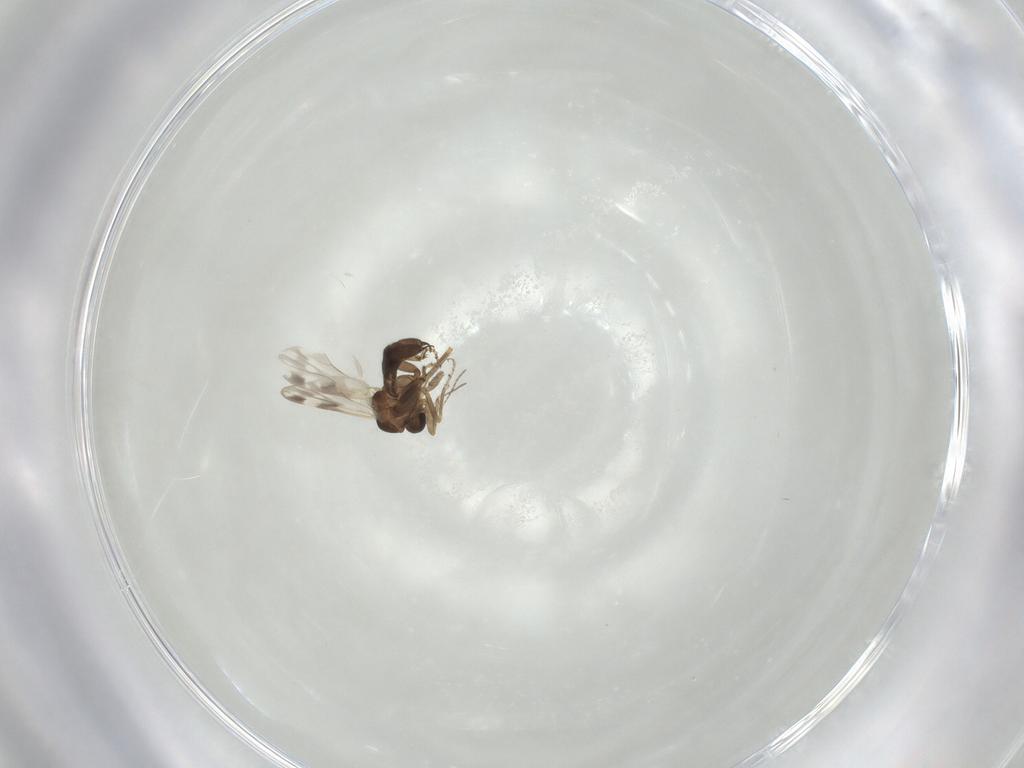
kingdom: Animalia
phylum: Arthropoda
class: Insecta
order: Diptera
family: Ceratopogonidae
